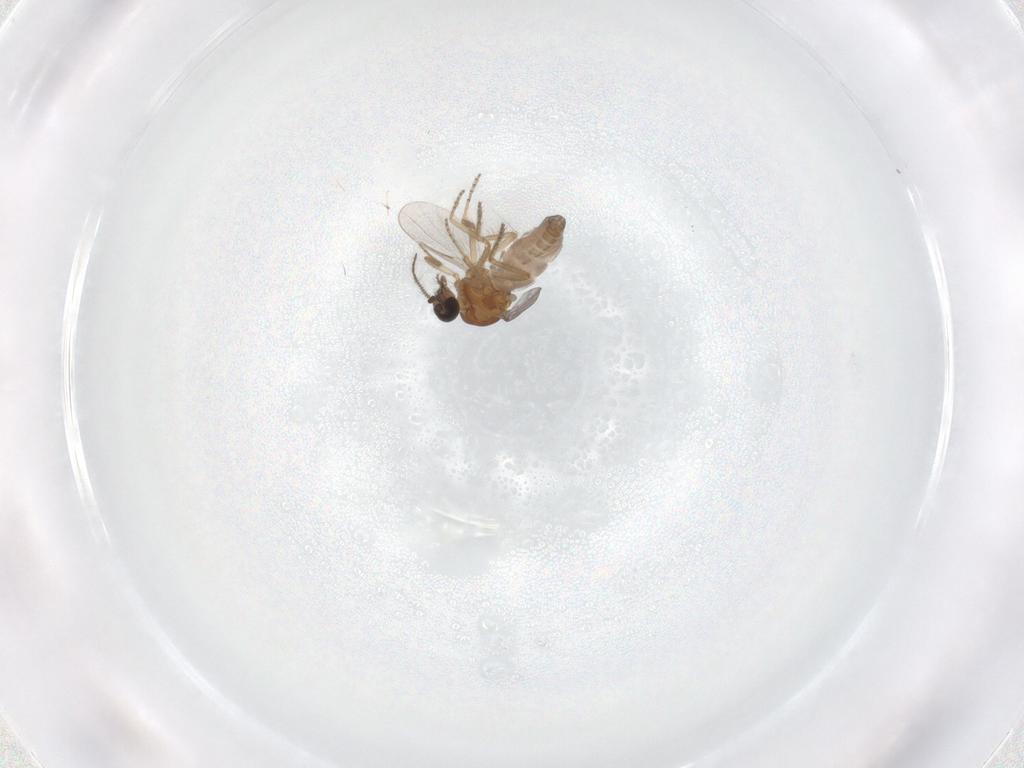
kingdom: Animalia
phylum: Arthropoda
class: Insecta
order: Diptera
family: Ceratopogonidae
